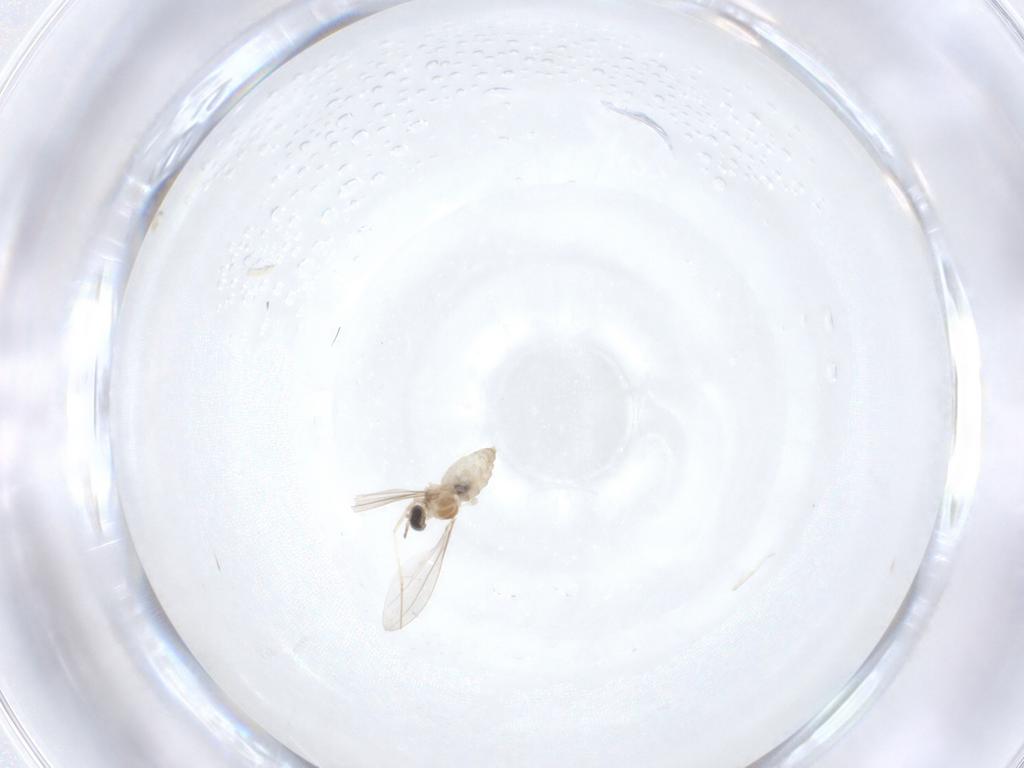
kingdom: Animalia
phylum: Arthropoda
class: Insecta
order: Diptera
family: Cecidomyiidae
